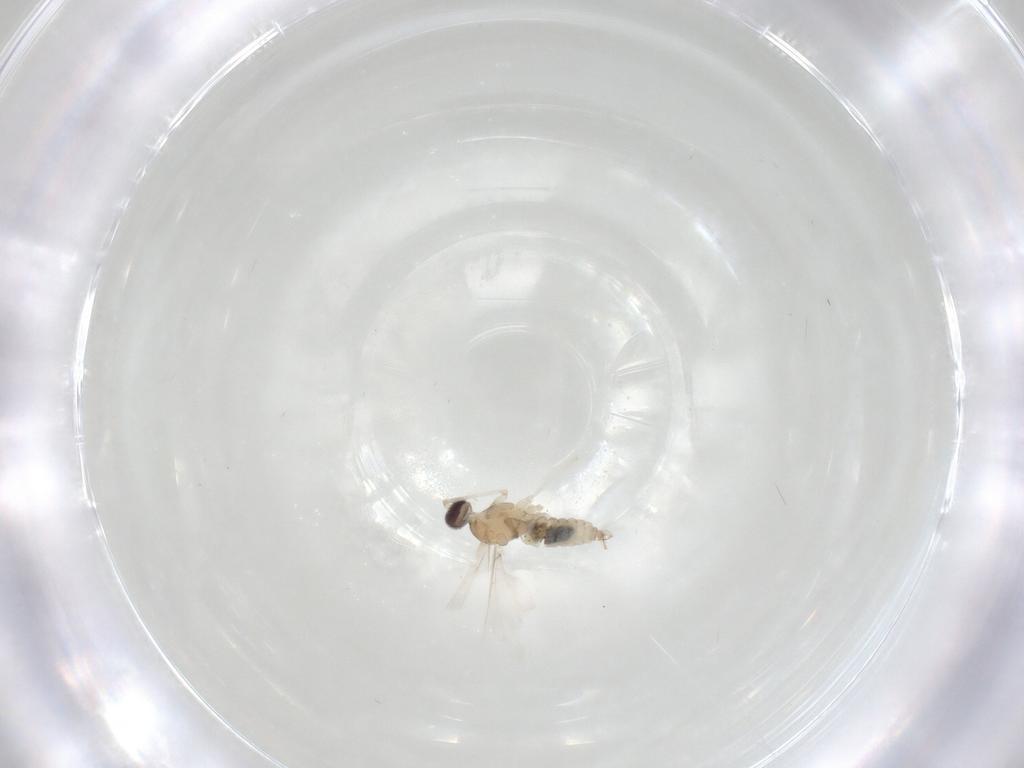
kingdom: Animalia
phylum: Arthropoda
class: Insecta
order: Diptera
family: Cecidomyiidae
